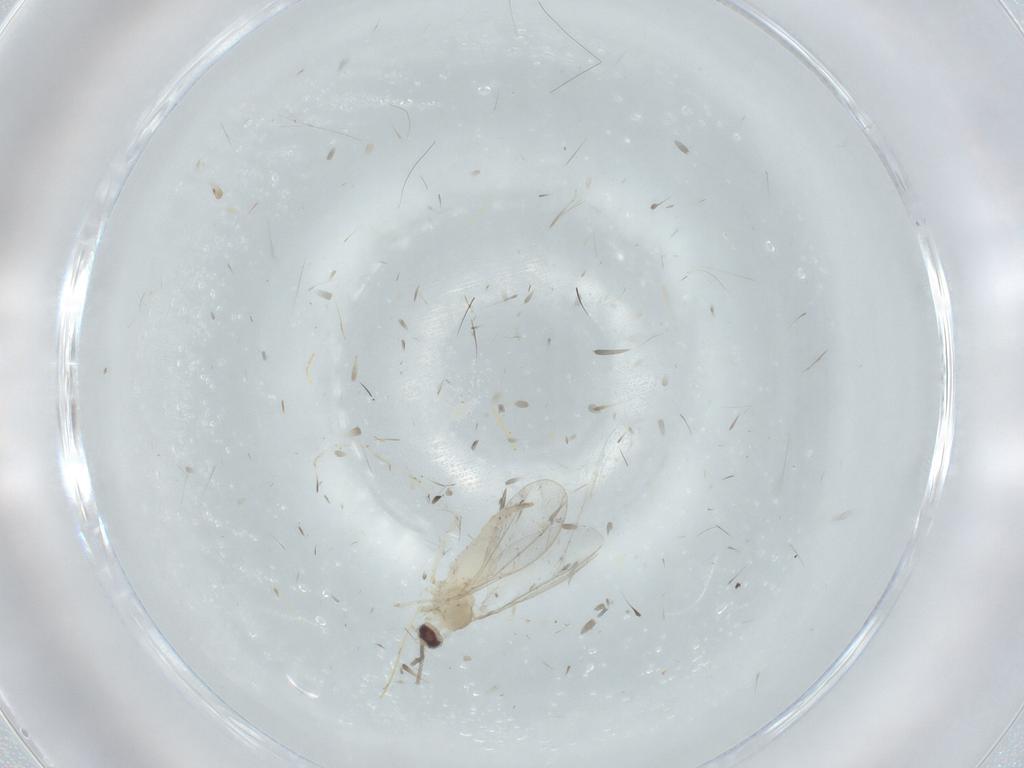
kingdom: Animalia
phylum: Arthropoda
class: Insecta
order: Diptera
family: Cecidomyiidae
